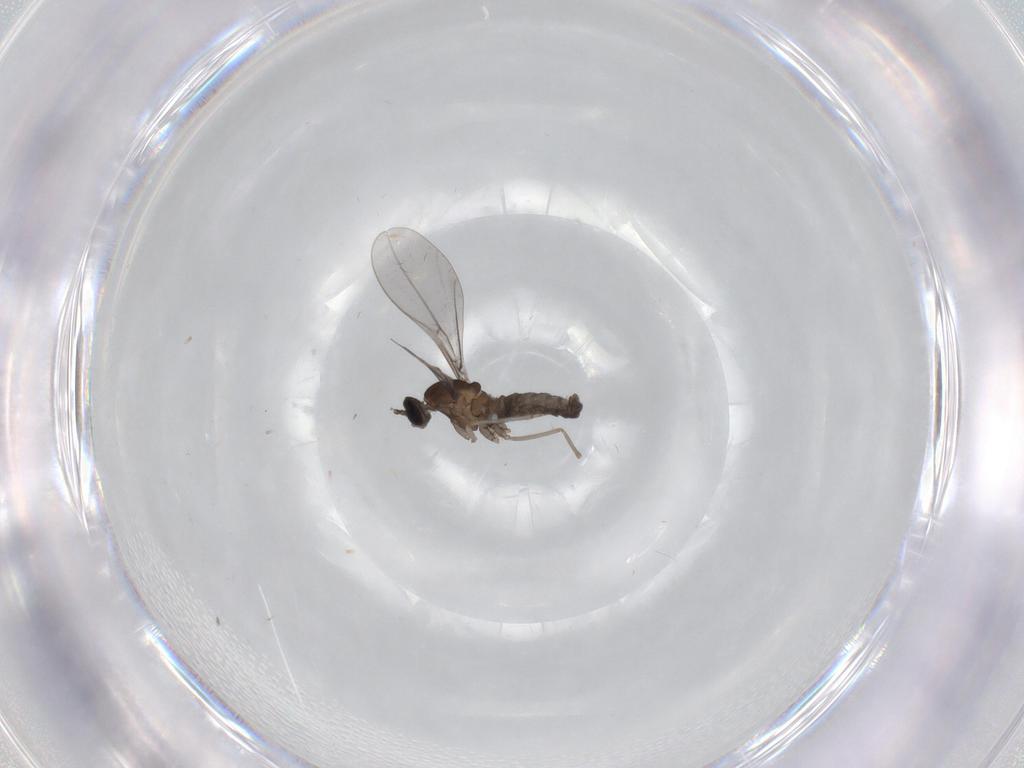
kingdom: Animalia
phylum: Arthropoda
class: Insecta
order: Diptera
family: Cecidomyiidae
